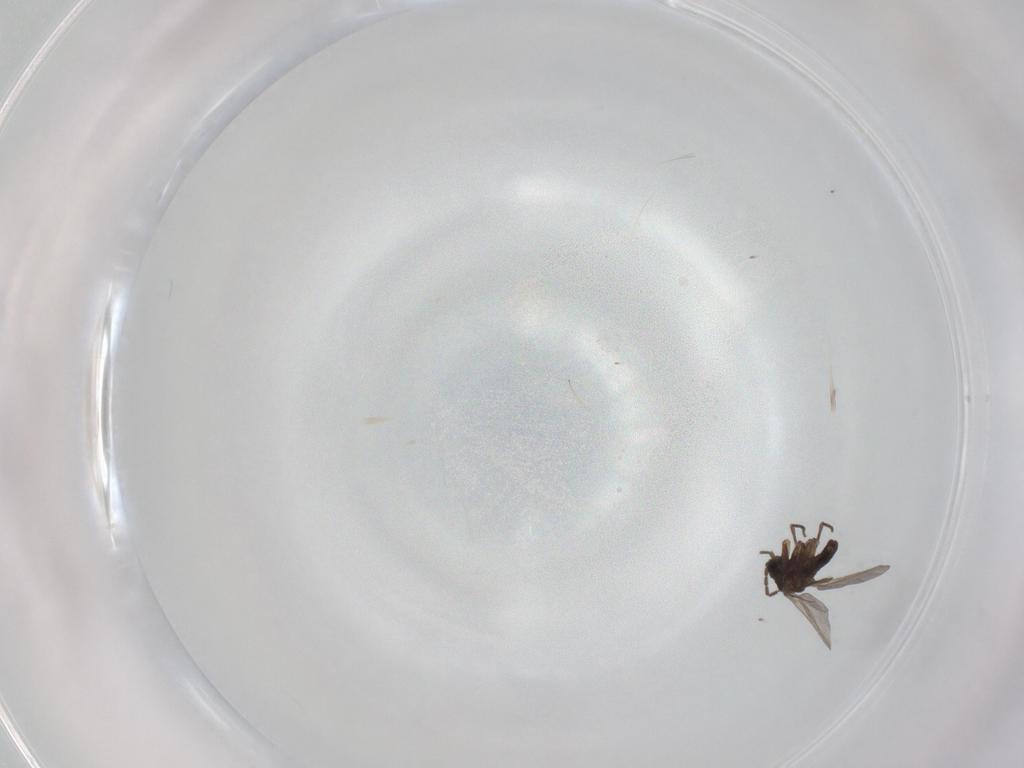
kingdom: Animalia
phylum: Arthropoda
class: Insecta
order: Diptera
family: Sciaridae
